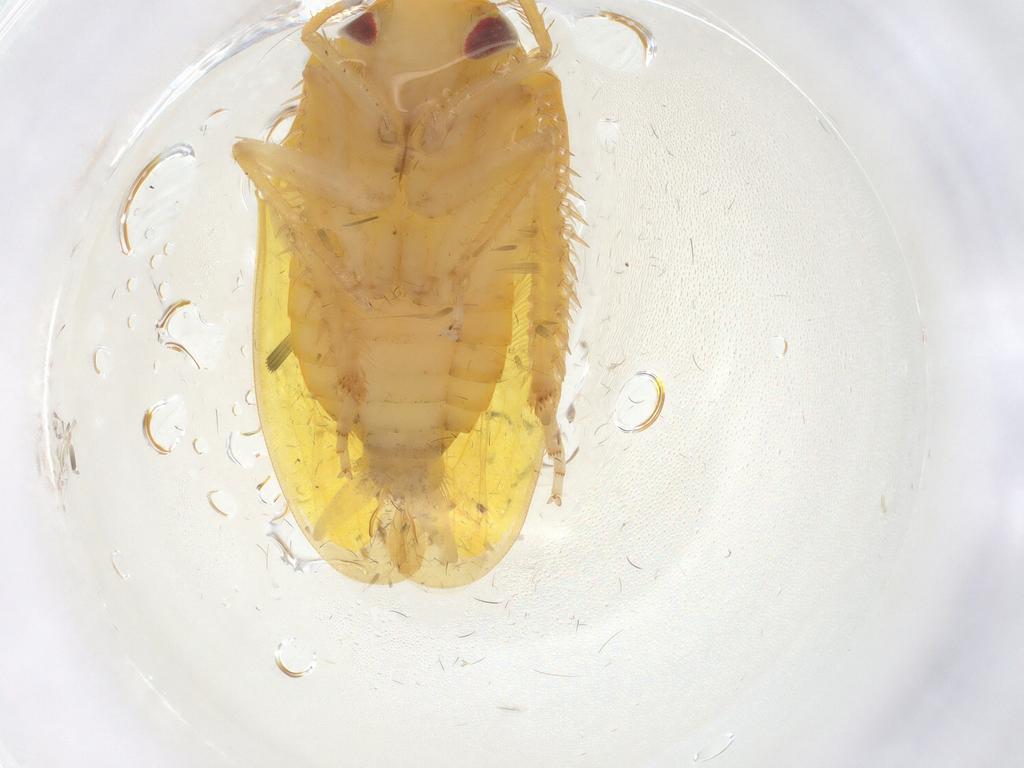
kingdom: Animalia
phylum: Arthropoda
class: Insecta
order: Hemiptera
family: Cicadellidae
